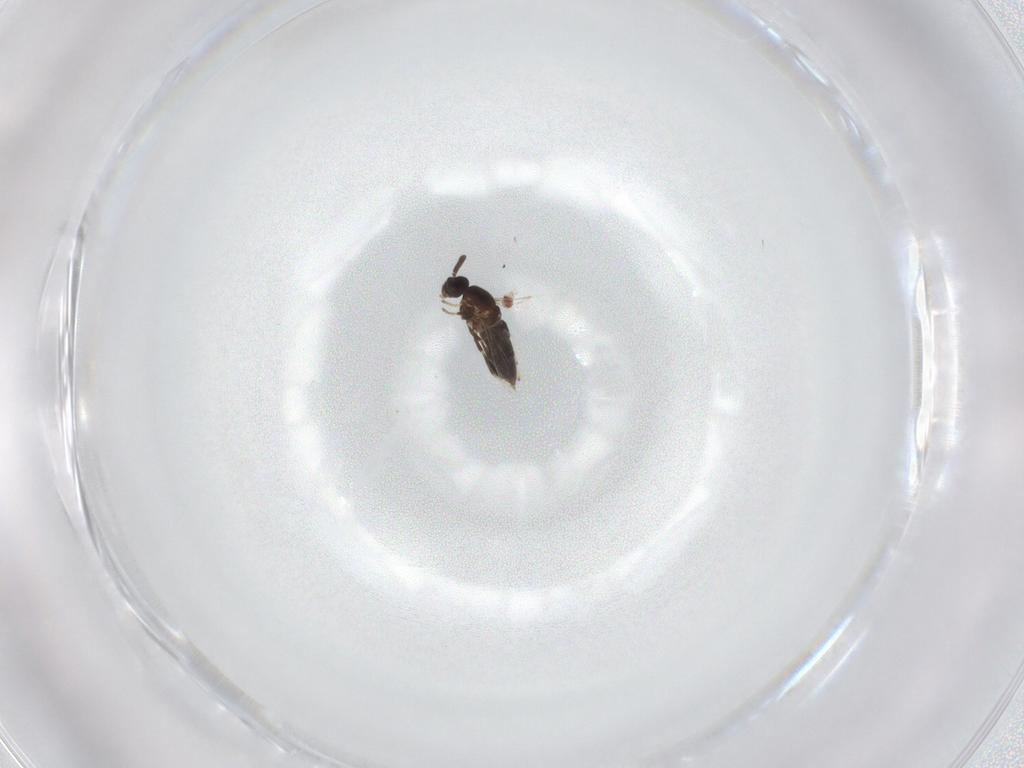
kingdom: Animalia
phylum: Arthropoda
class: Insecta
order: Diptera
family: Scatopsidae
